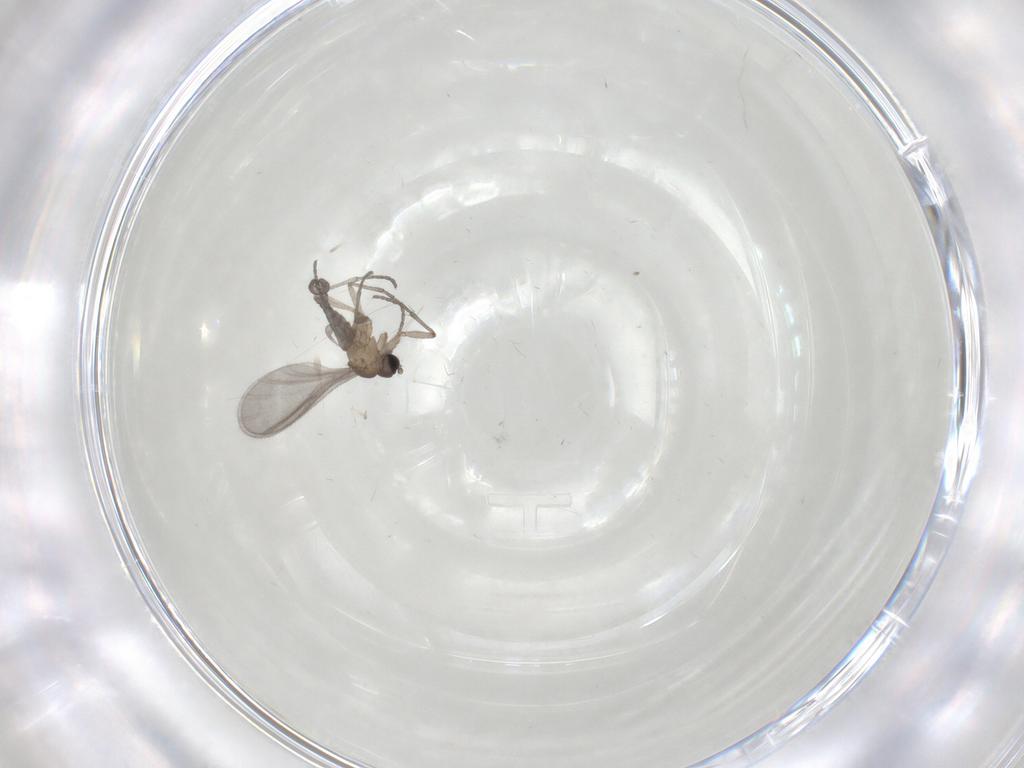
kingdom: Animalia
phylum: Arthropoda
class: Insecta
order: Diptera
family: Sciaridae
